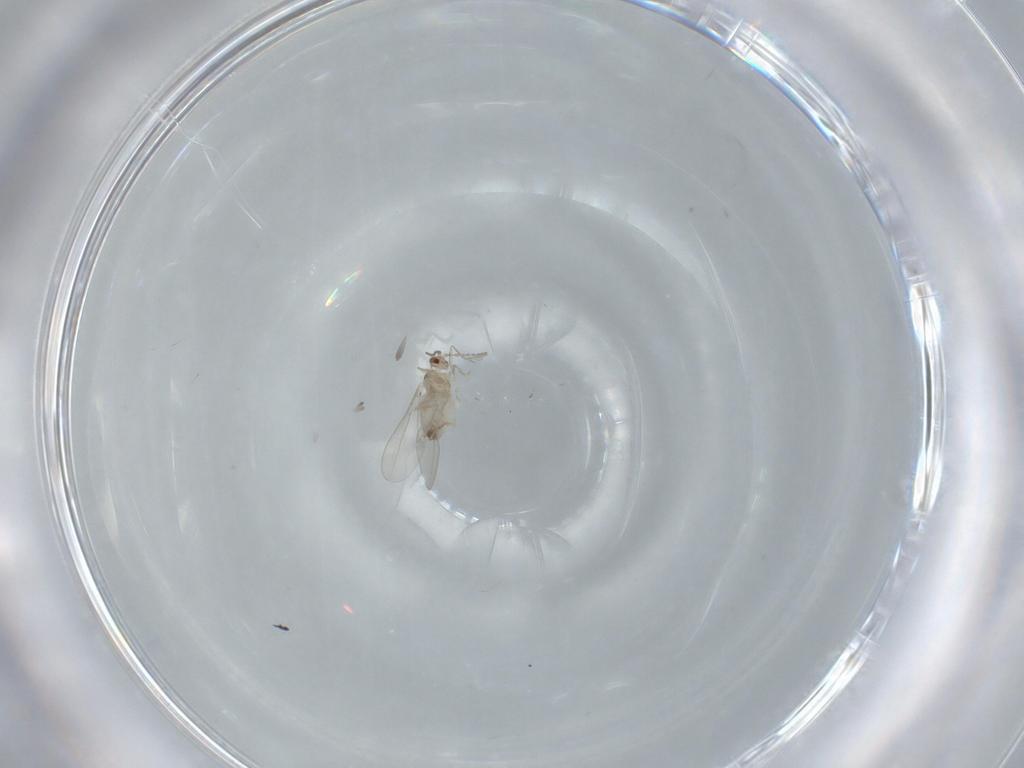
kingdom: Animalia
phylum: Arthropoda
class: Insecta
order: Diptera
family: Cecidomyiidae
